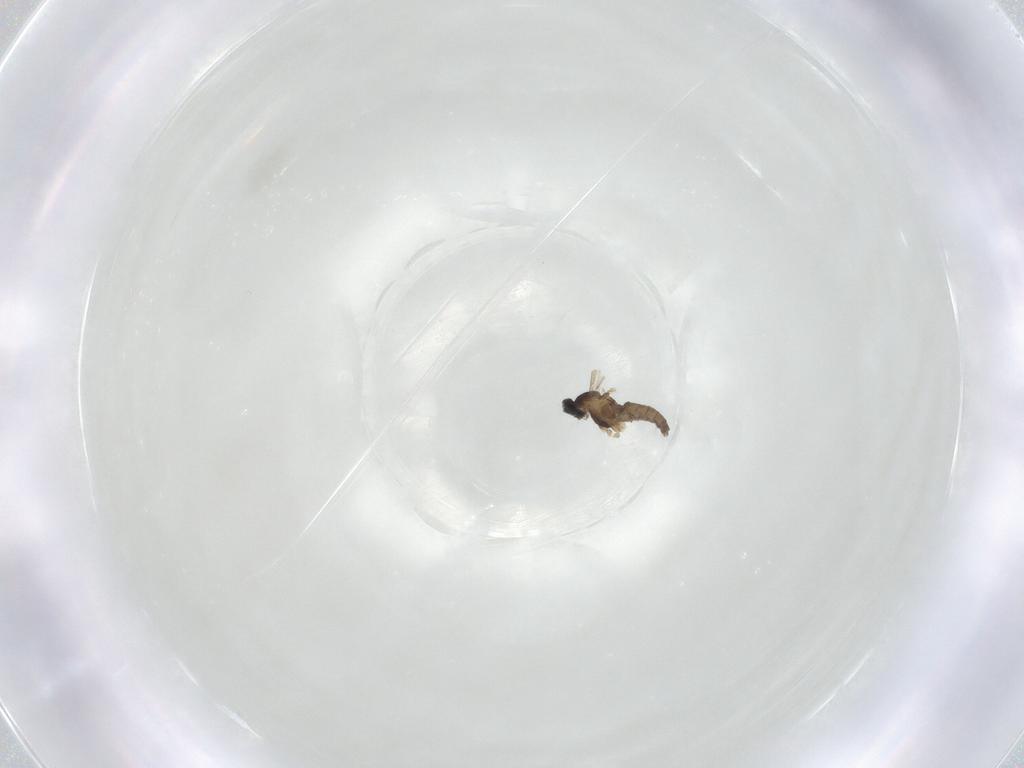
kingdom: Animalia
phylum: Arthropoda
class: Insecta
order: Diptera
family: Cecidomyiidae
